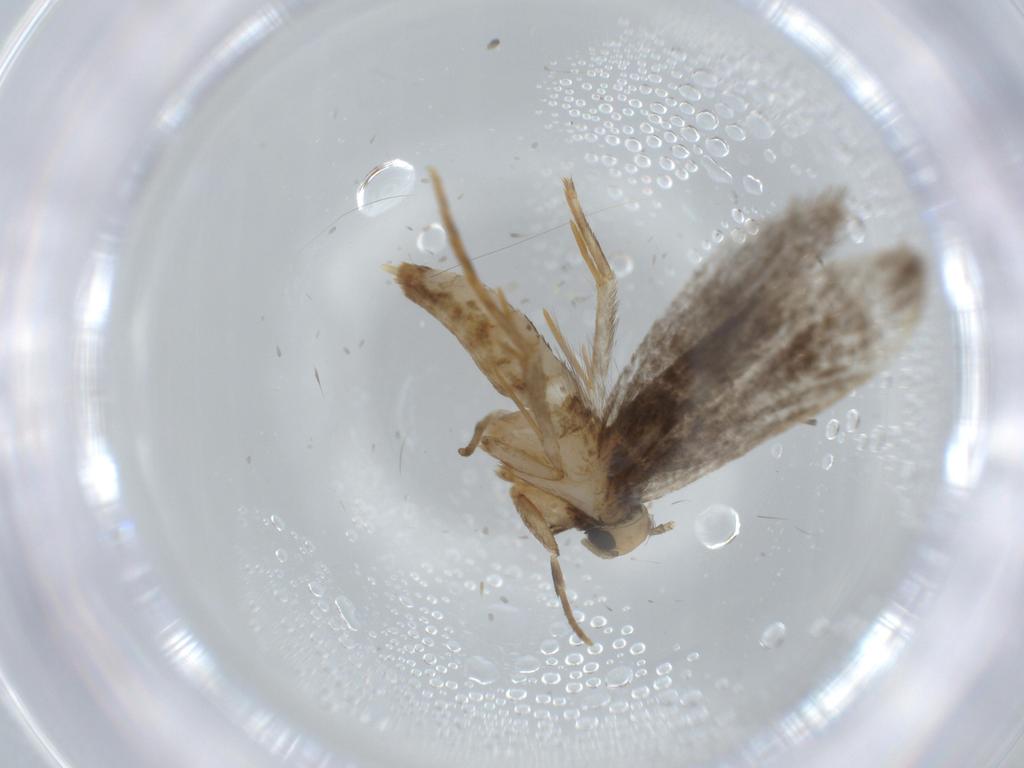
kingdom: Animalia
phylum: Arthropoda
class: Insecta
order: Lepidoptera
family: Tineidae
